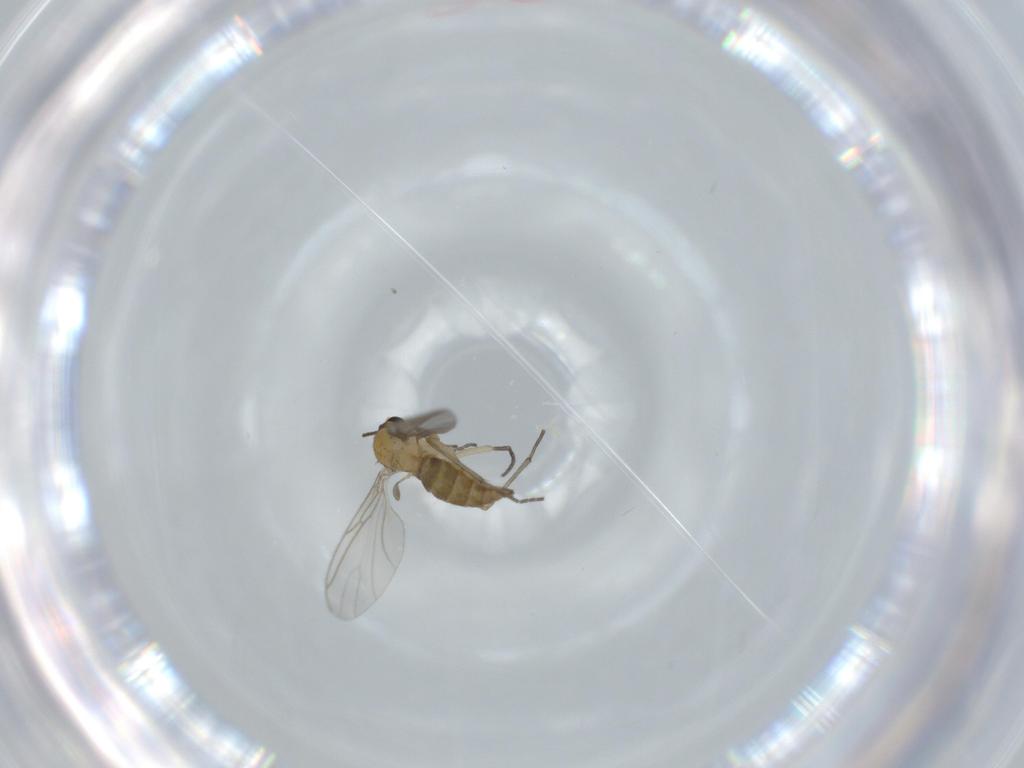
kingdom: Animalia
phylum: Arthropoda
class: Insecta
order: Diptera
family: Sciaridae
